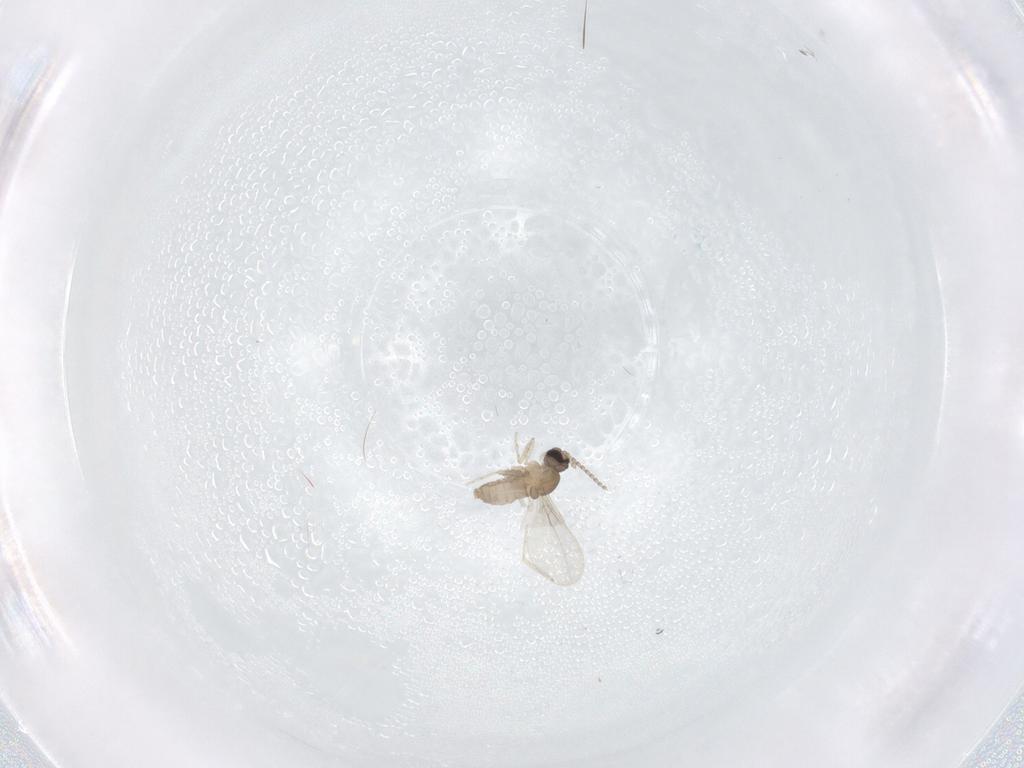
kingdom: Animalia
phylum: Arthropoda
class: Insecta
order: Diptera
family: Cecidomyiidae
